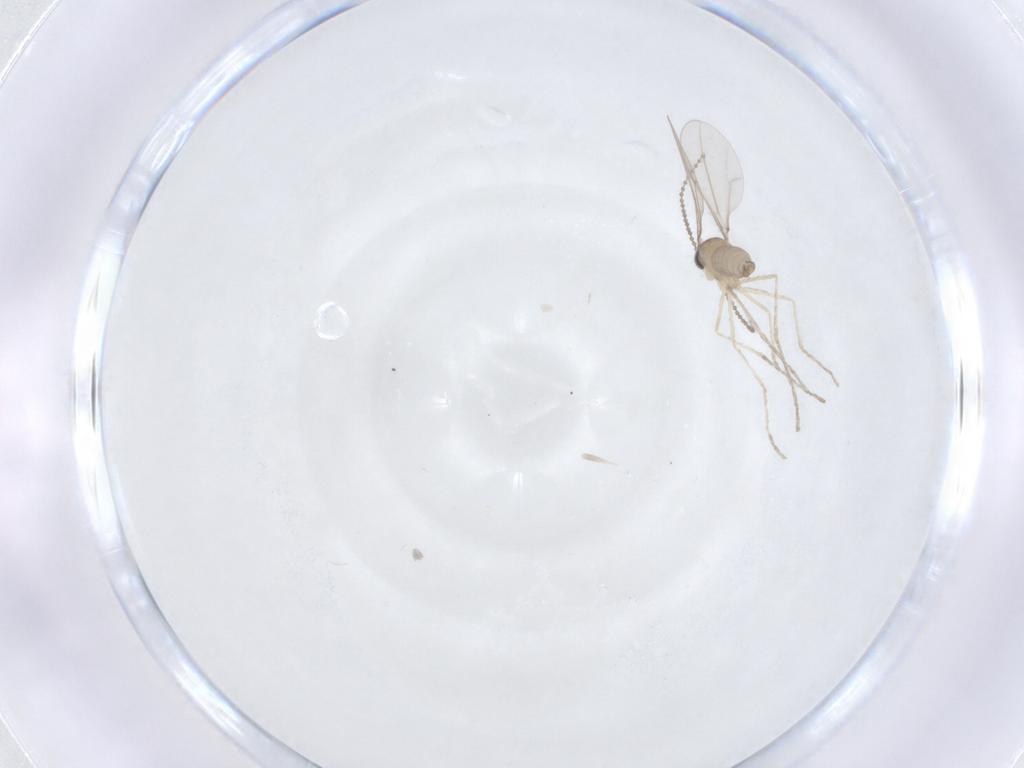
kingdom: Animalia
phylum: Arthropoda
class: Insecta
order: Diptera
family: Cecidomyiidae
